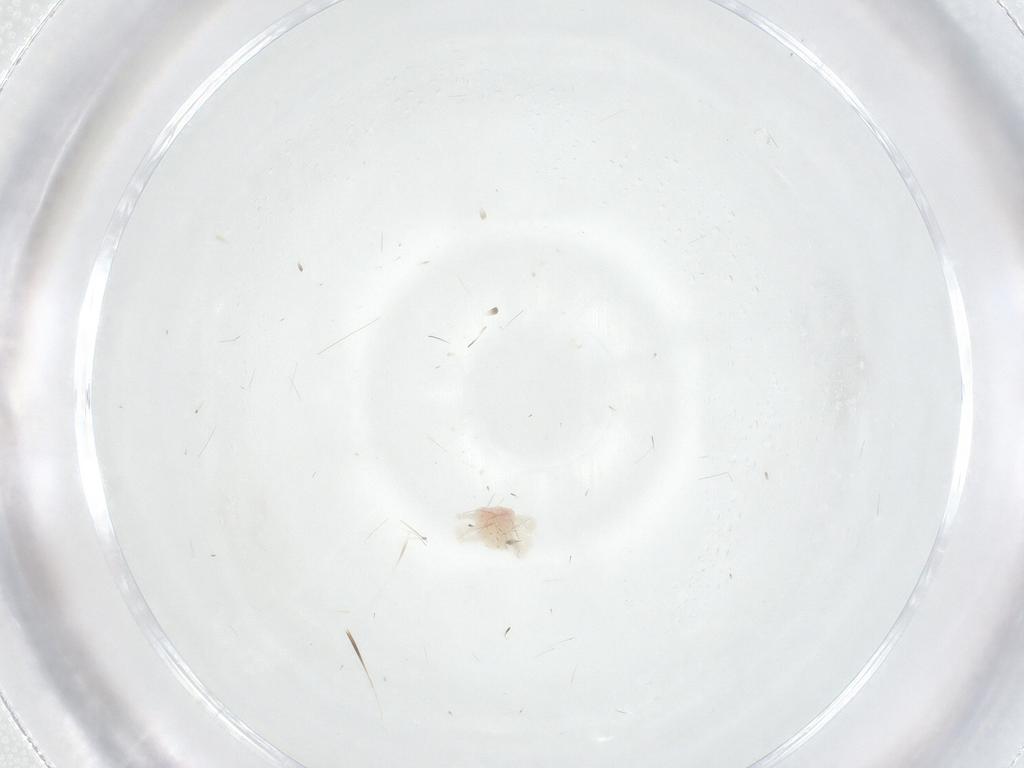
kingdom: Animalia
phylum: Arthropoda
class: Arachnida
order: Trombidiformes
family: Anystidae
